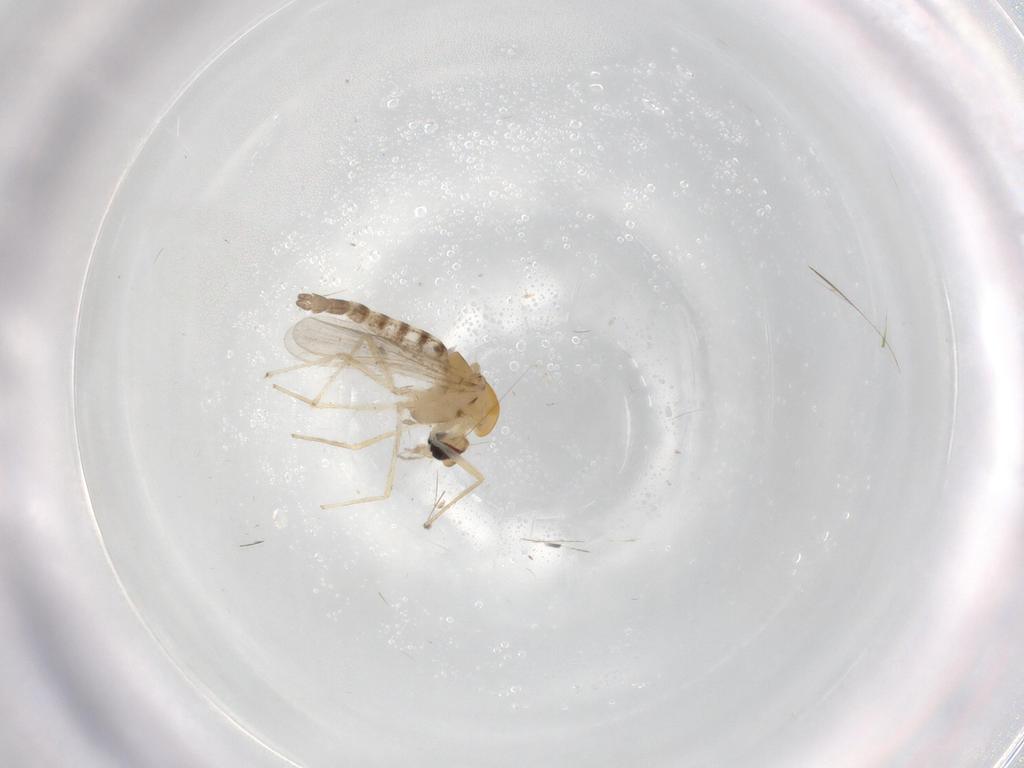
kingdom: Animalia
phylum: Arthropoda
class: Insecta
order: Diptera
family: Chironomidae
